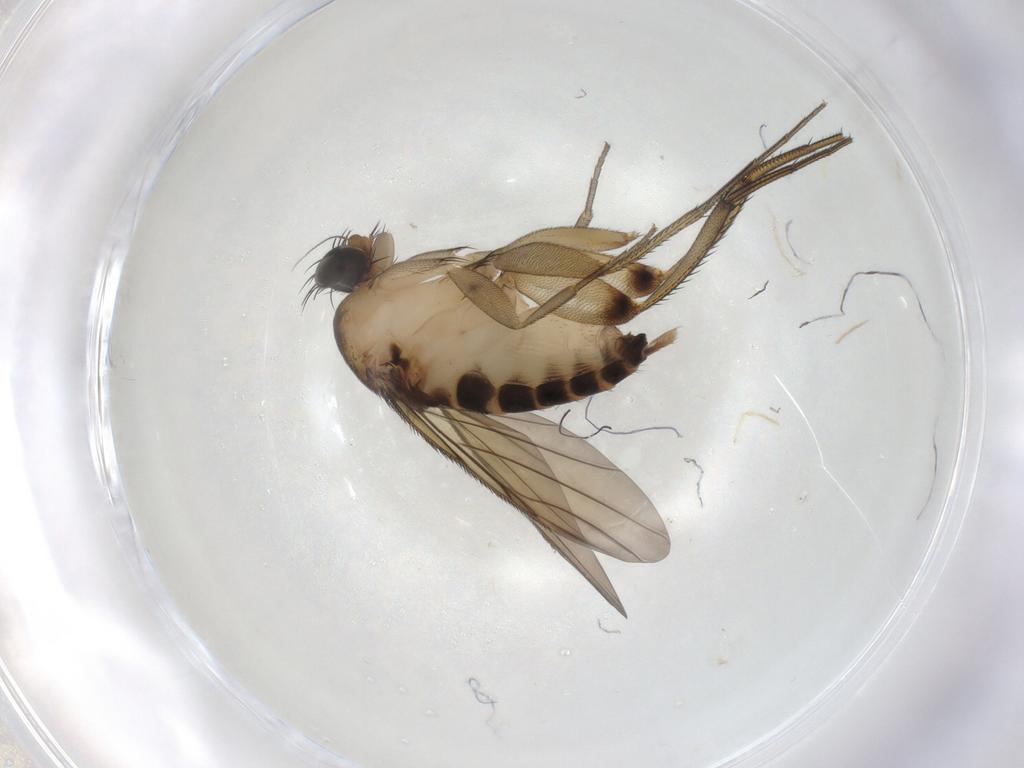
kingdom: Animalia
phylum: Arthropoda
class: Insecta
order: Diptera
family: Phoridae
